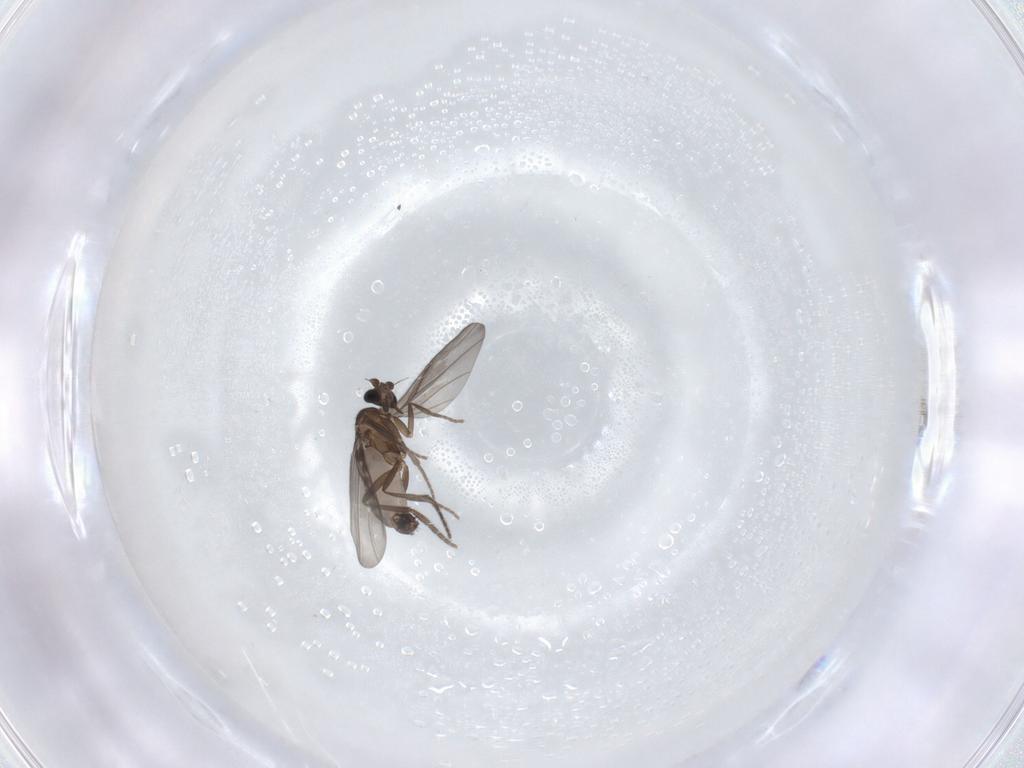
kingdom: Animalia
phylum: Arthropoda
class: Insecta
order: Diptera
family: Phoridae
